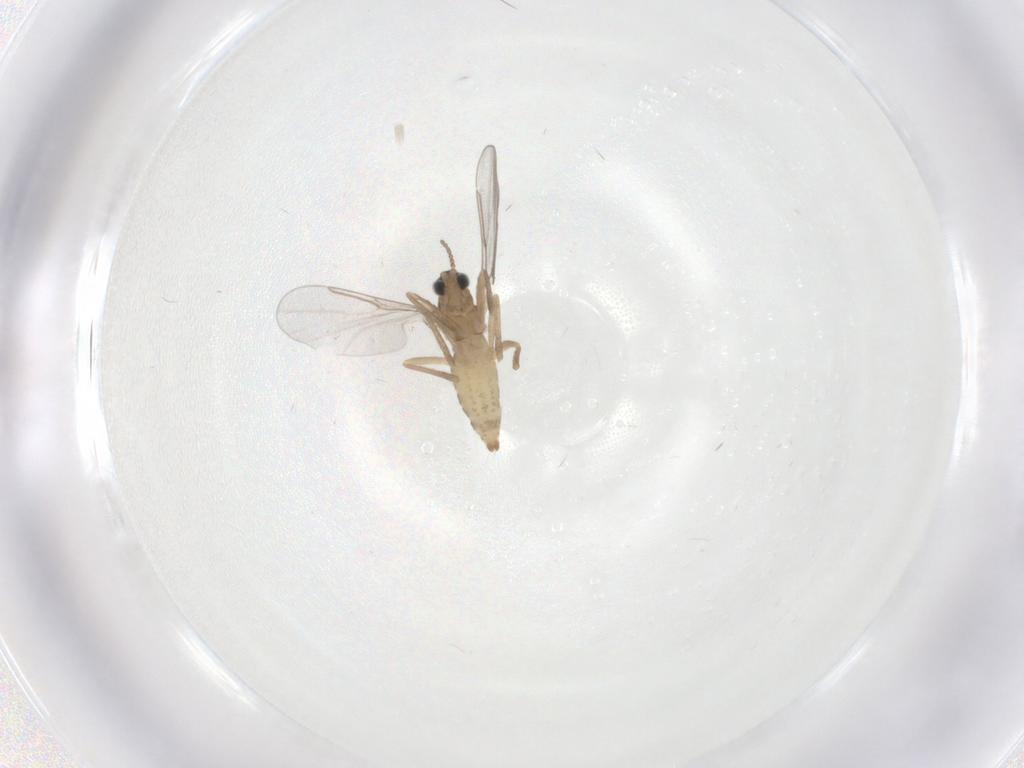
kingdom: Animalia
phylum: Arthropoda
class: Insecta
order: Diptera
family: Cecidomyiidae
